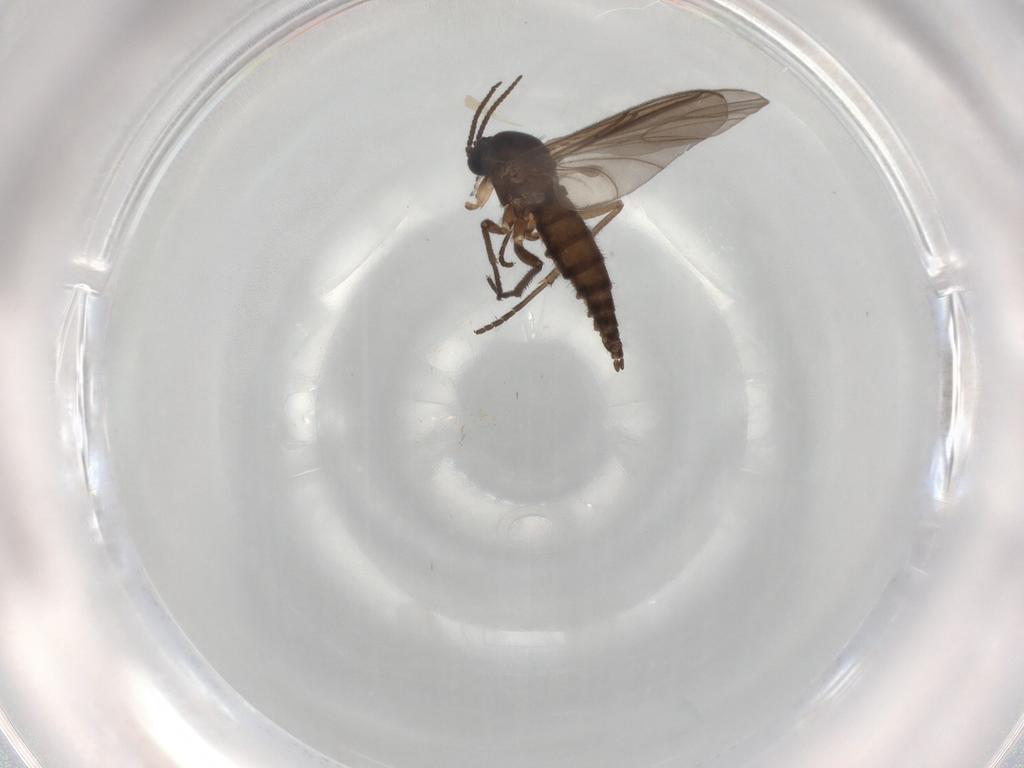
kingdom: Animalia
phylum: Arthropoda
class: Insecta
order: Diptera
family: Sciaridae
